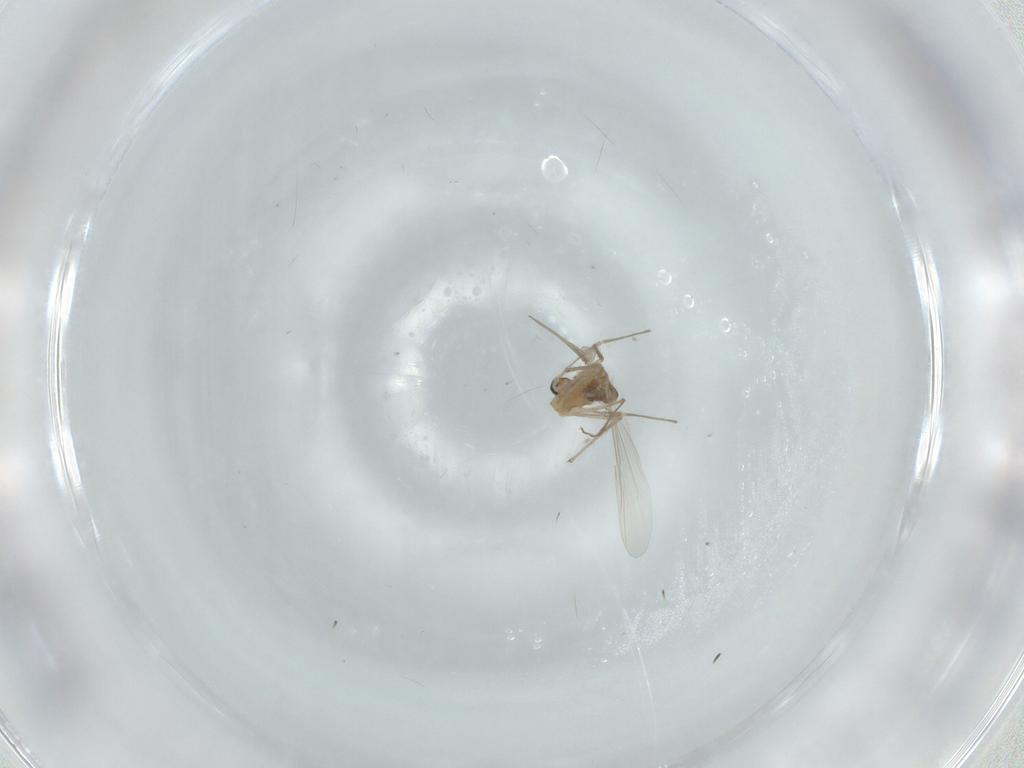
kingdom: Animalia
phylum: Arthropoda
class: Insecta
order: Diptera
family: Chironomidae
